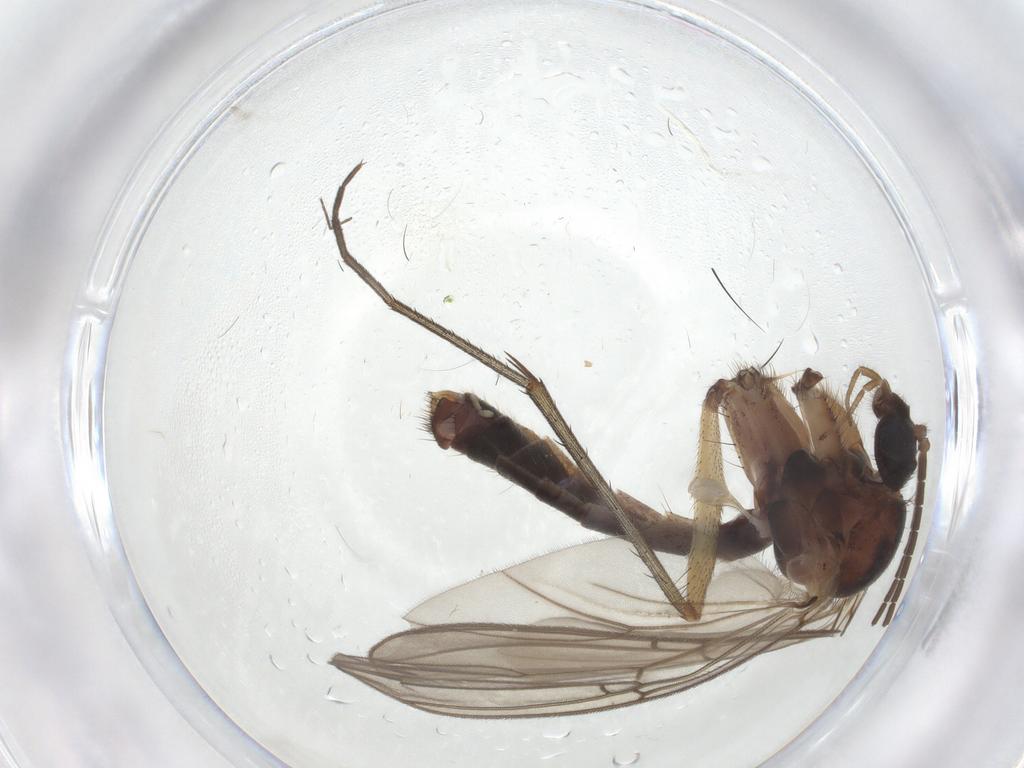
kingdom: Animalia
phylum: Arthropoda
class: Insecta
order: Diptera
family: Mycetophilidae
